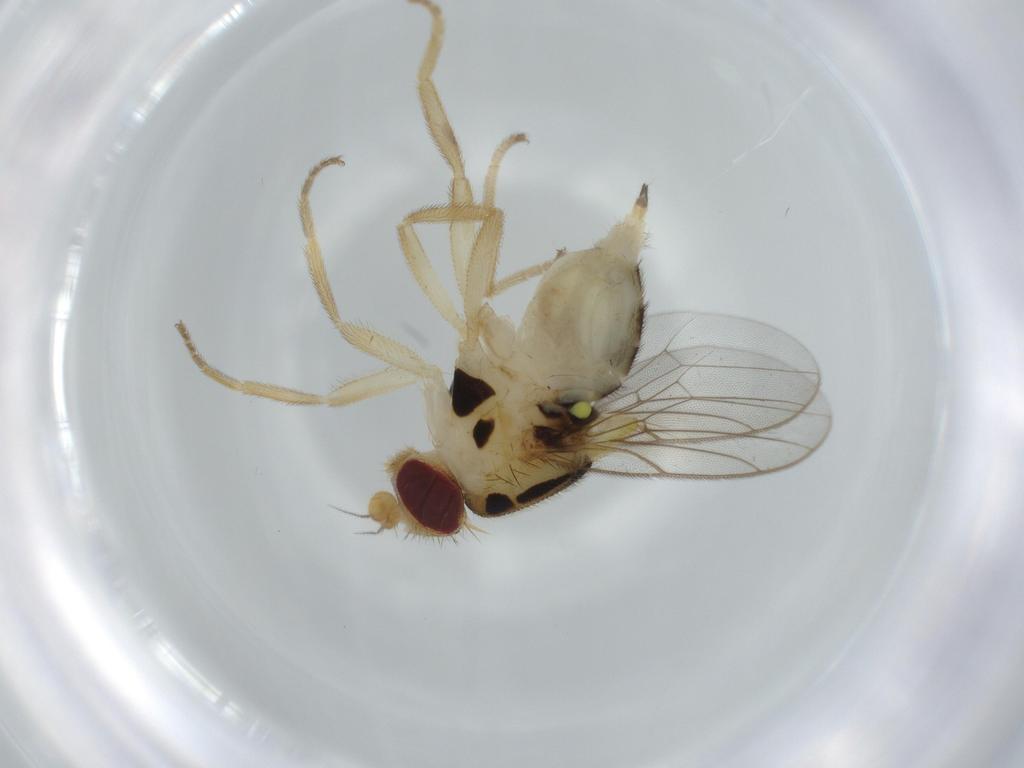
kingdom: Animalia
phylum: Arthropoda
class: Insecta
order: Diptera
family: Chloropidae
